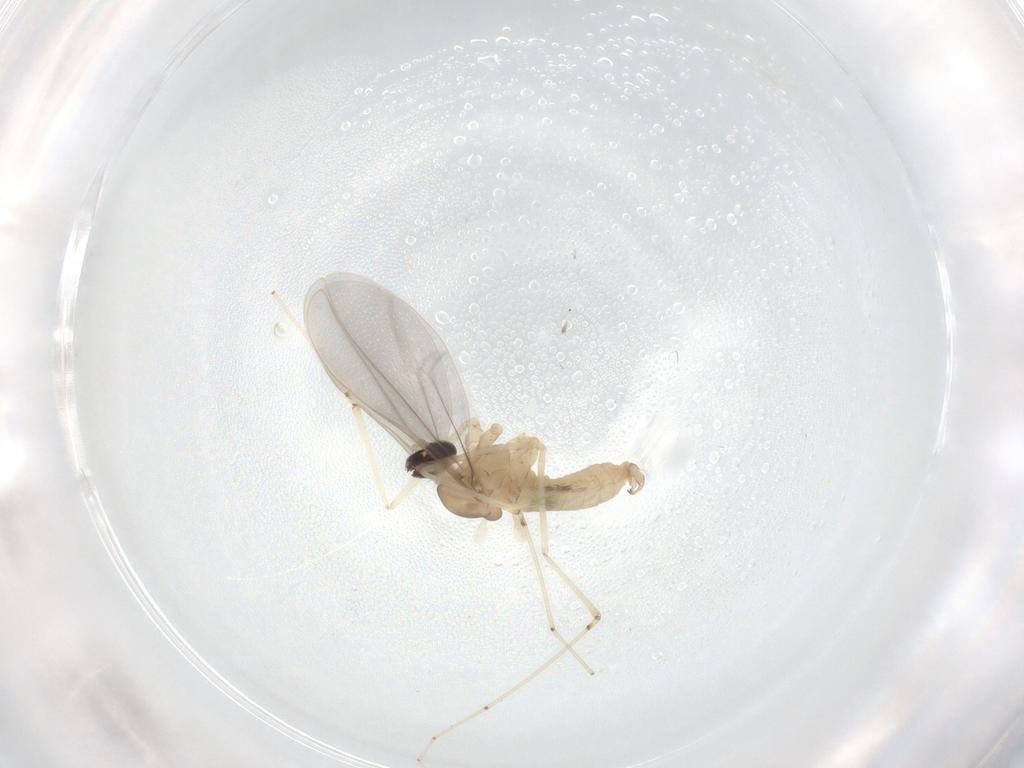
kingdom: Animalia
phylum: Arthropoda
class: Insecta
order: Diptera
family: Cecidomyiidae
